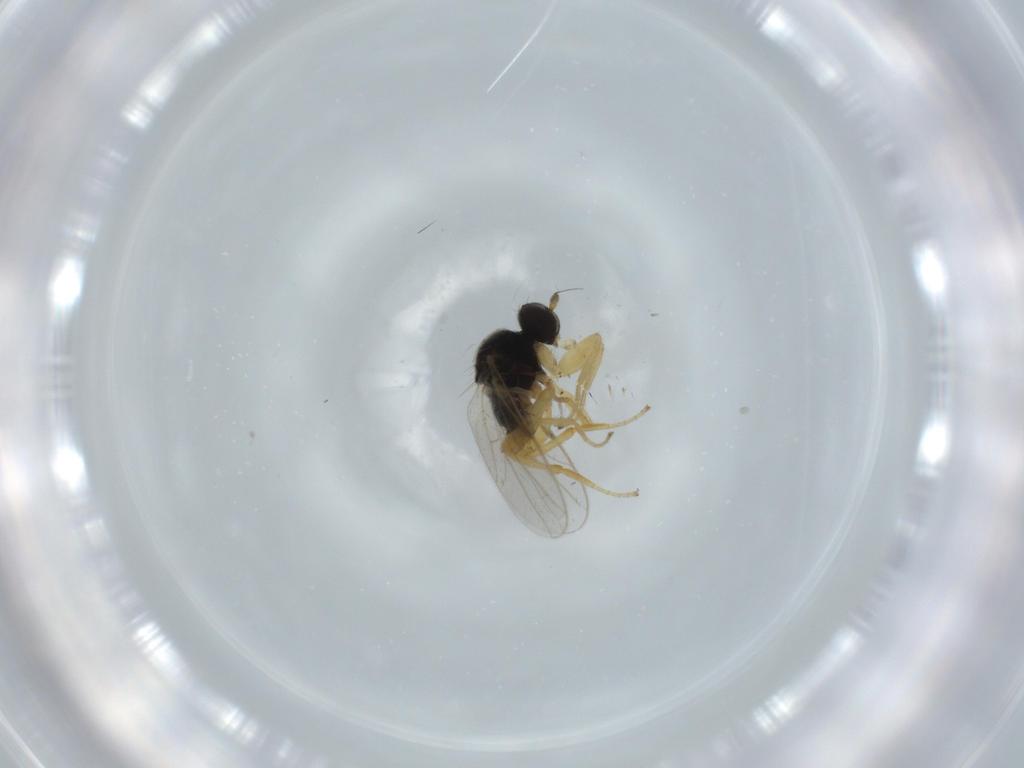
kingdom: Animalia
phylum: Arthropoda
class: Insecta
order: Diptera
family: Hybotidae
